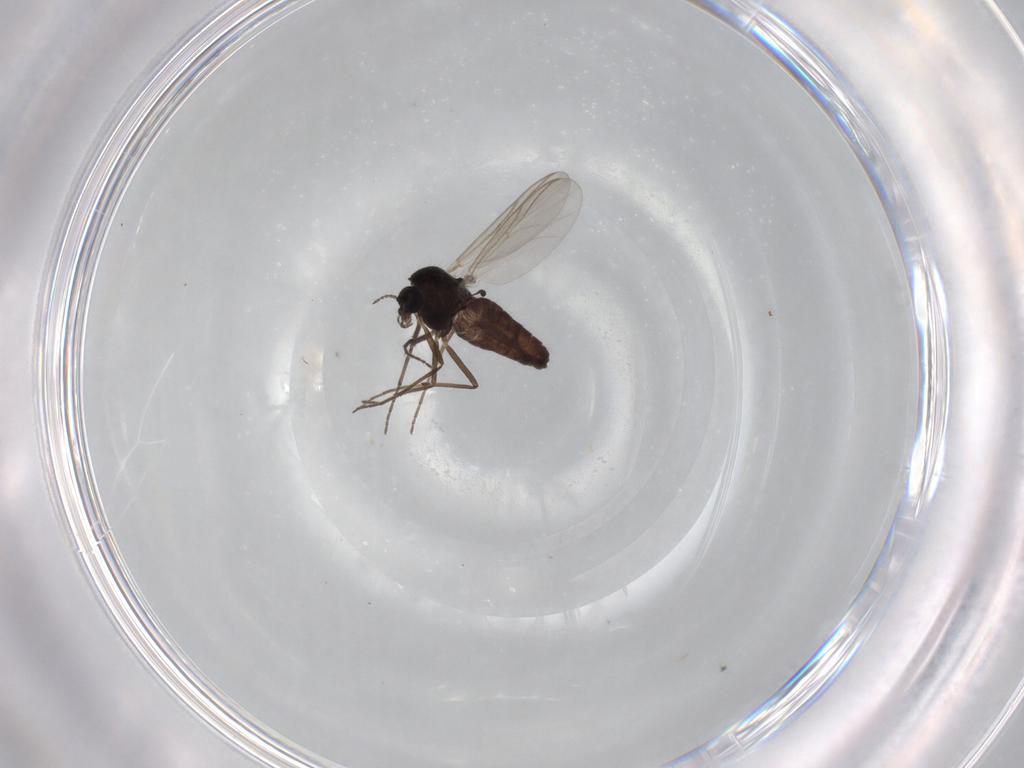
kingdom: Animalia
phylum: Arthropoda
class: Insecta
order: Diptera
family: Chironomidae
